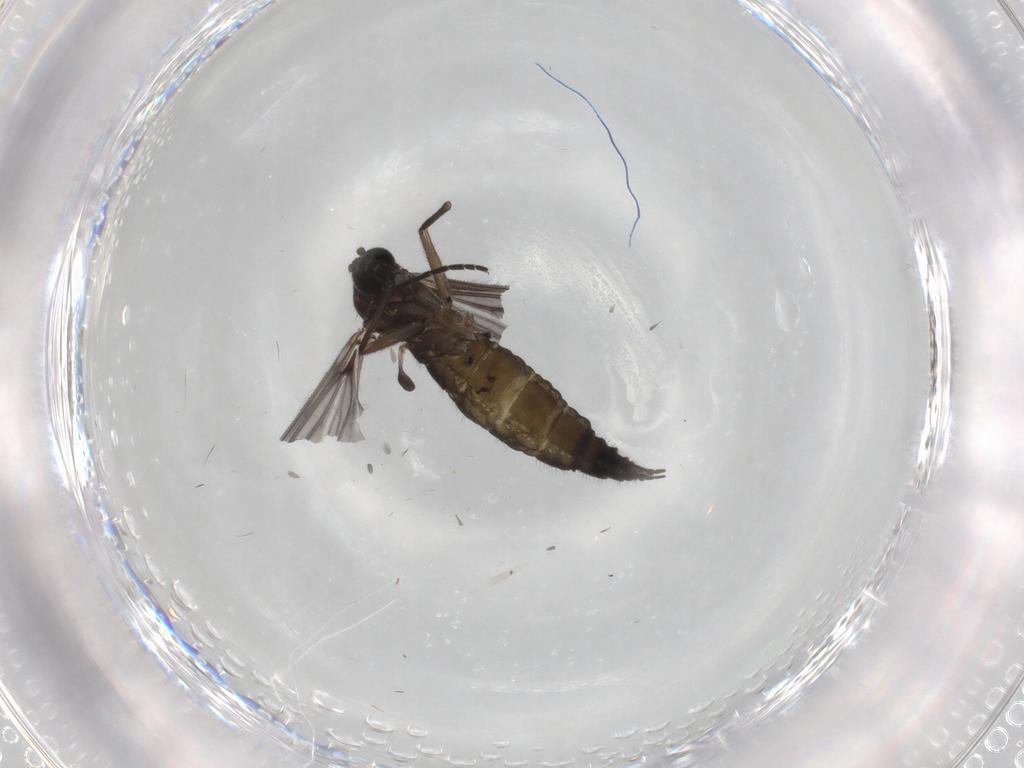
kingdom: Animalia
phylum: Arthropoda
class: Insecta
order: Diptera
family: Sciaridae
